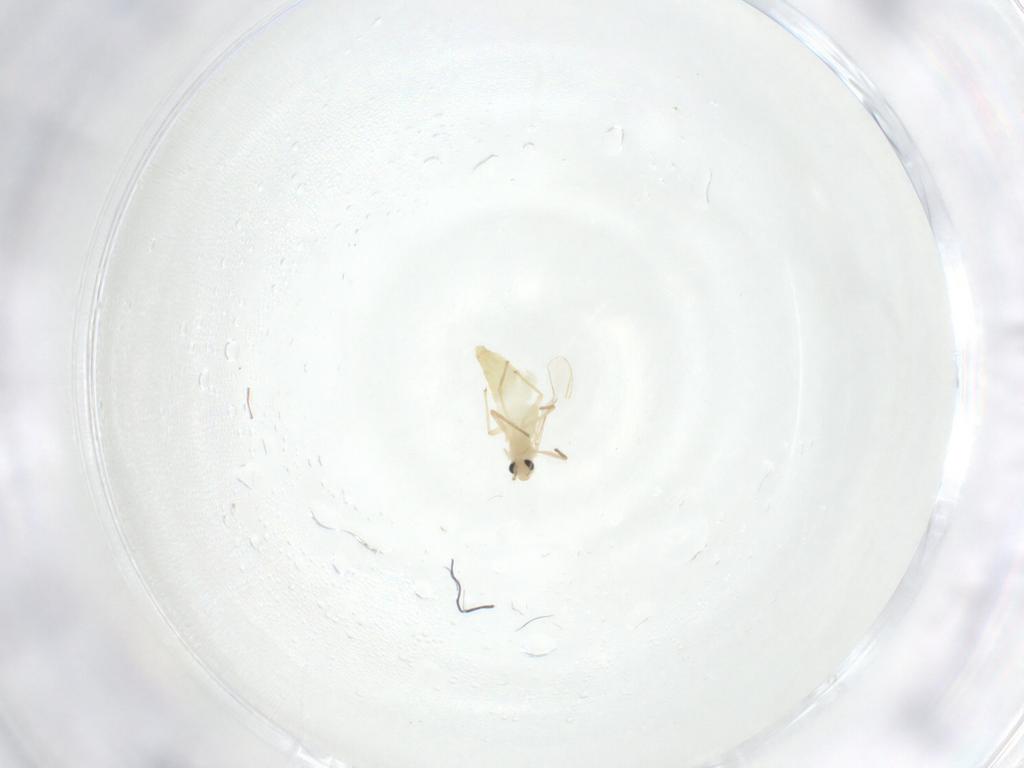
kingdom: Animalia
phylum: Arthropoda
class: Insecta
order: Diptera
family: Chironomidae
